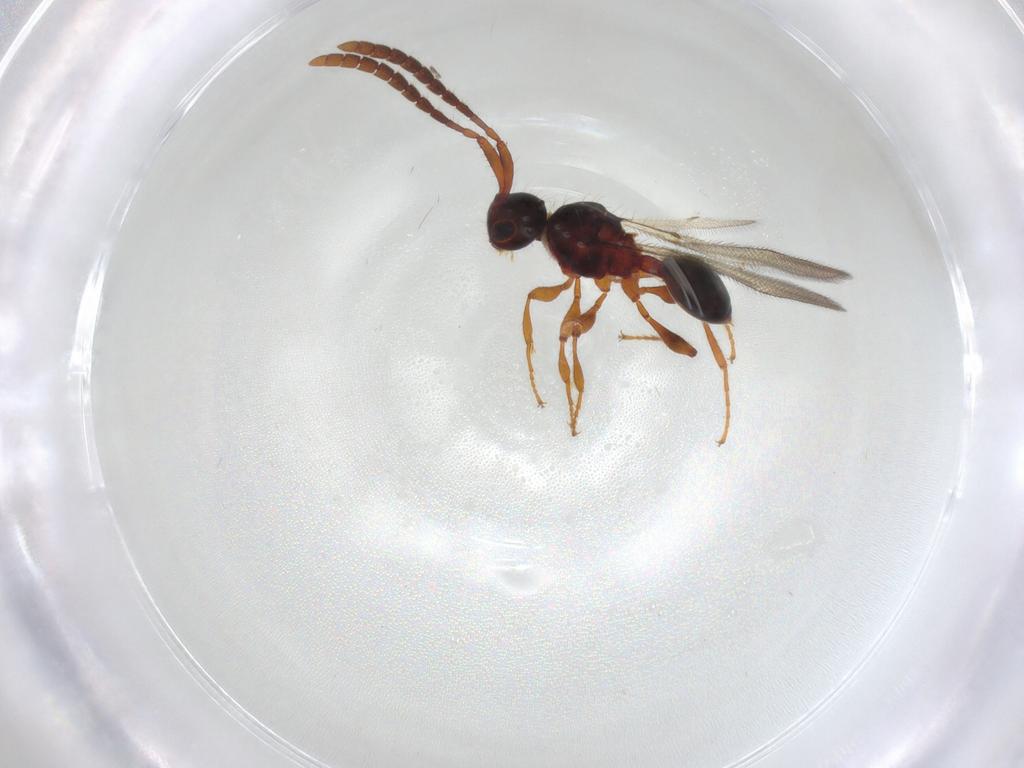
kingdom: Animalia
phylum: Arthropoda
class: Insecta
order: Hymenoptera
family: Diapriidae
